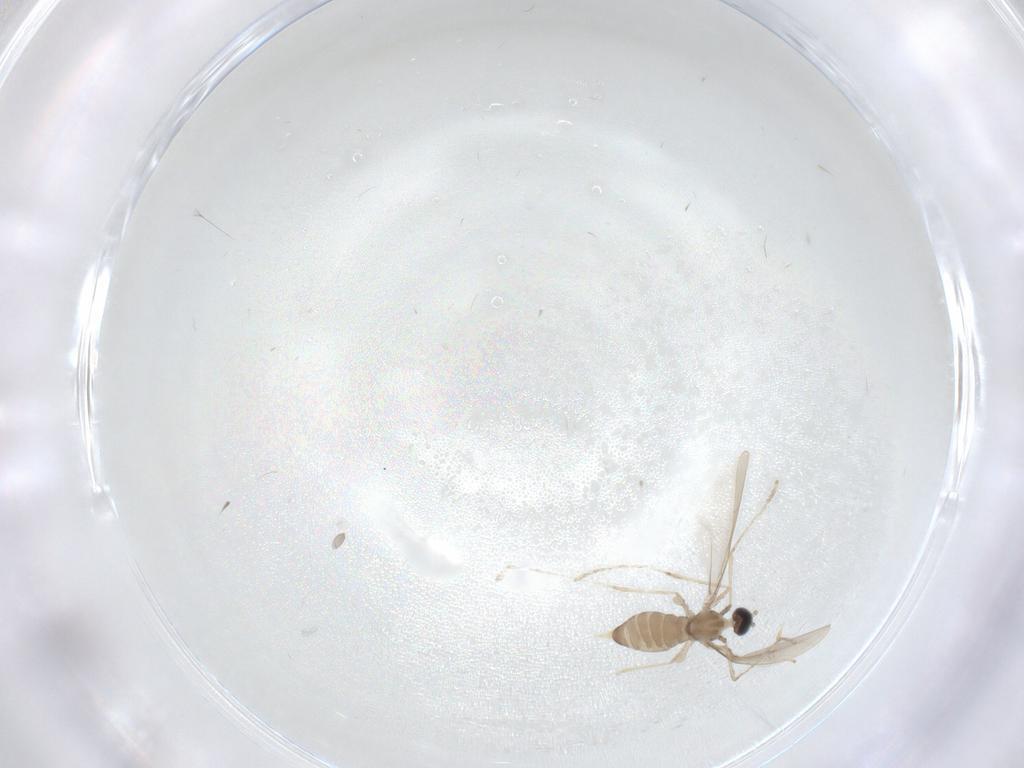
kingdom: Animalia
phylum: Arthropoda
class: Insecta
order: Diptera
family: Cecidomyiidae
